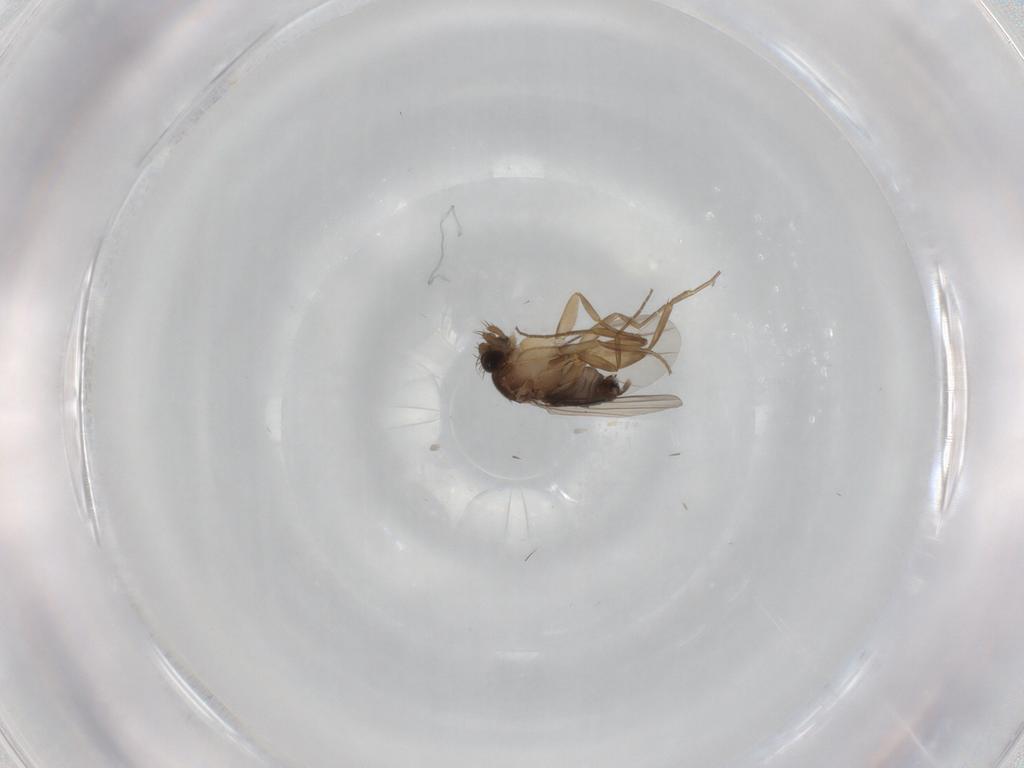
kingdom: Animalia
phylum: Arthropoda
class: Insecta
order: Diptera
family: Phoridae
